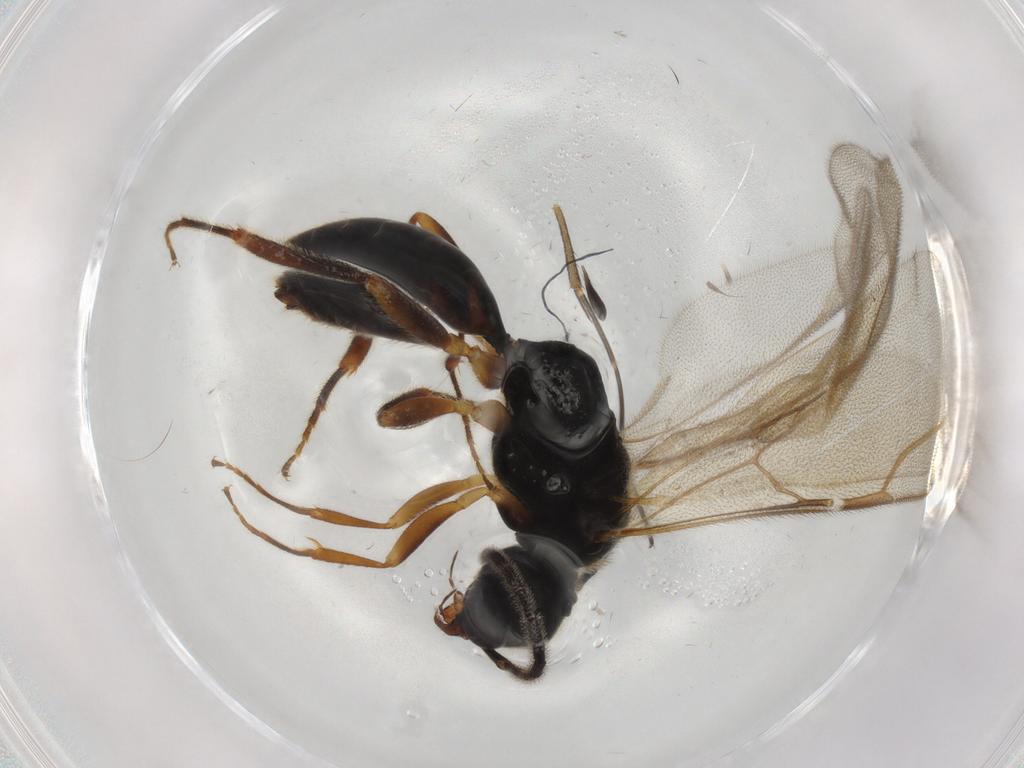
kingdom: Animalia
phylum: Arthropoda
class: Insecta
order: Hymenoptera
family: Bethylidae
